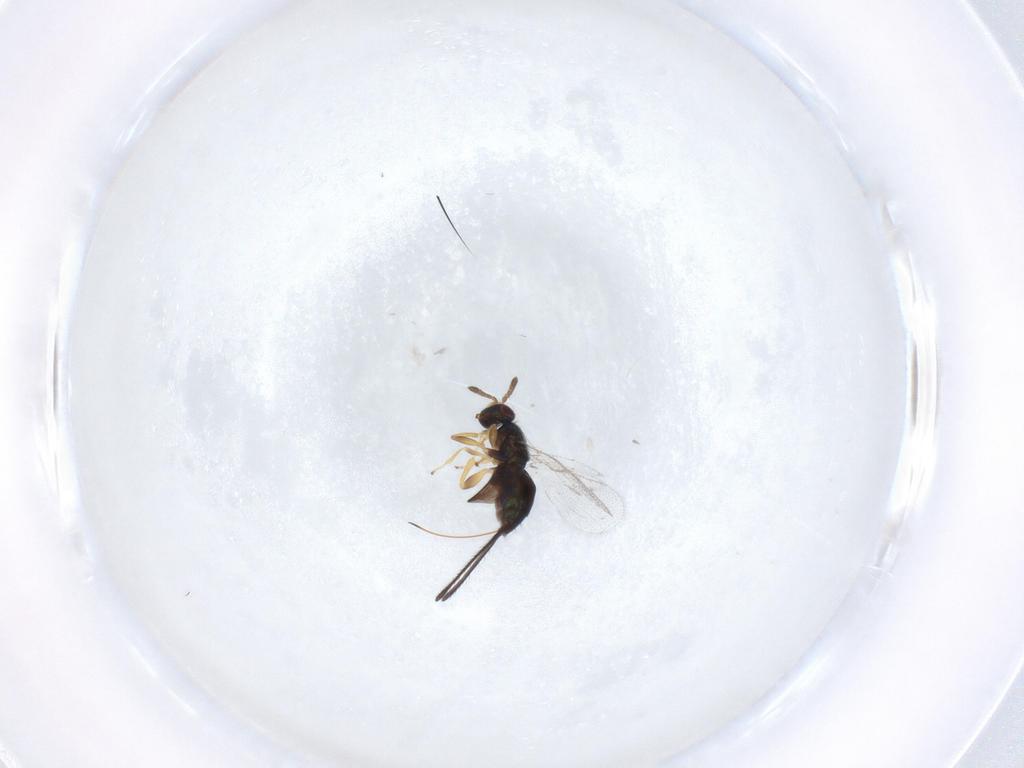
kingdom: Animalia
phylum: Arthropoda
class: Insecta
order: Hymenoptera
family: Torymidae
